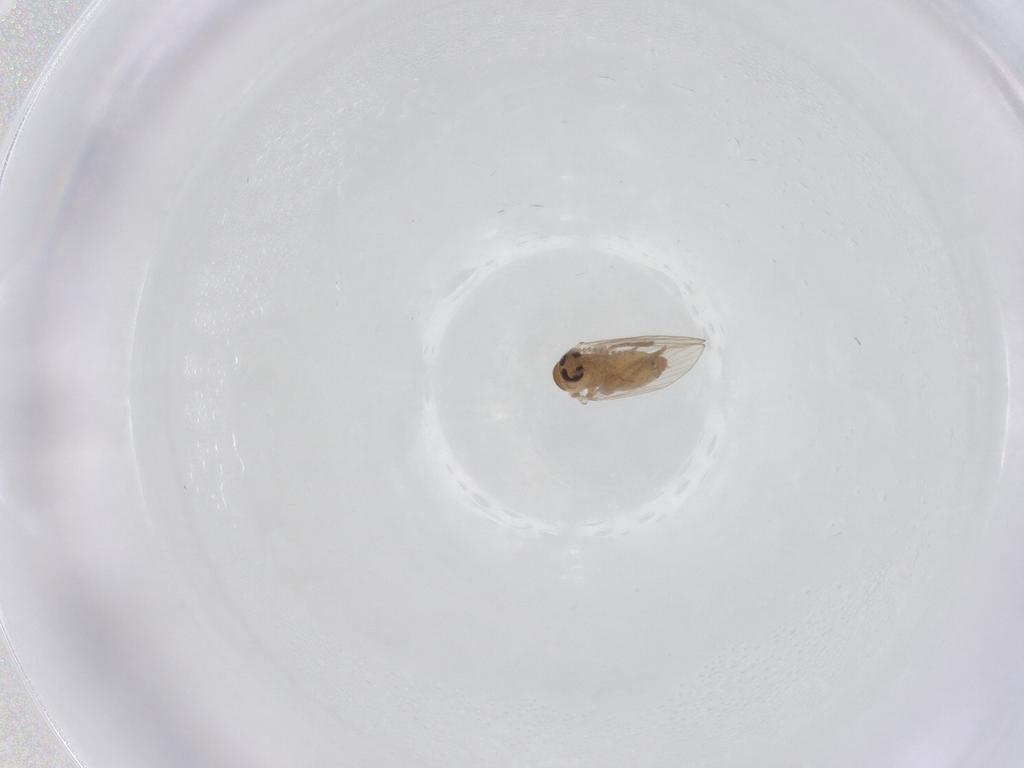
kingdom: Animalia
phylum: Arthropoda
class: Insecta
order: Diptera
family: Psychodidae
